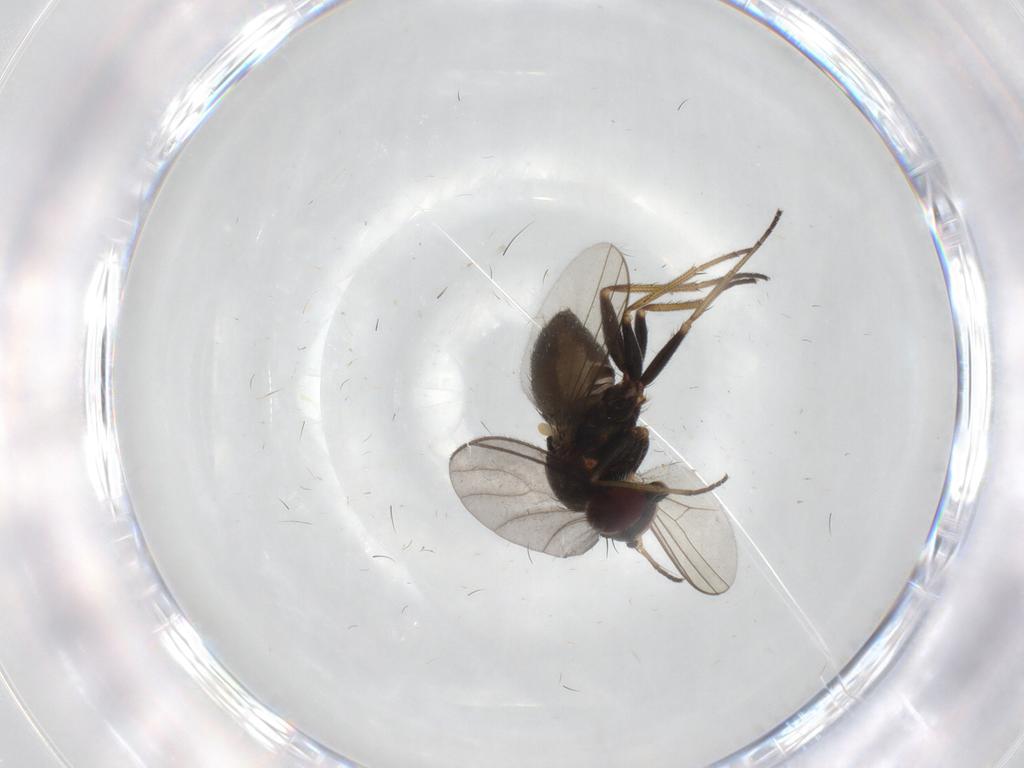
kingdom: Animalia
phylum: Arthropoda
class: Insecta
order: Diptera
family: Dolichopodidae
